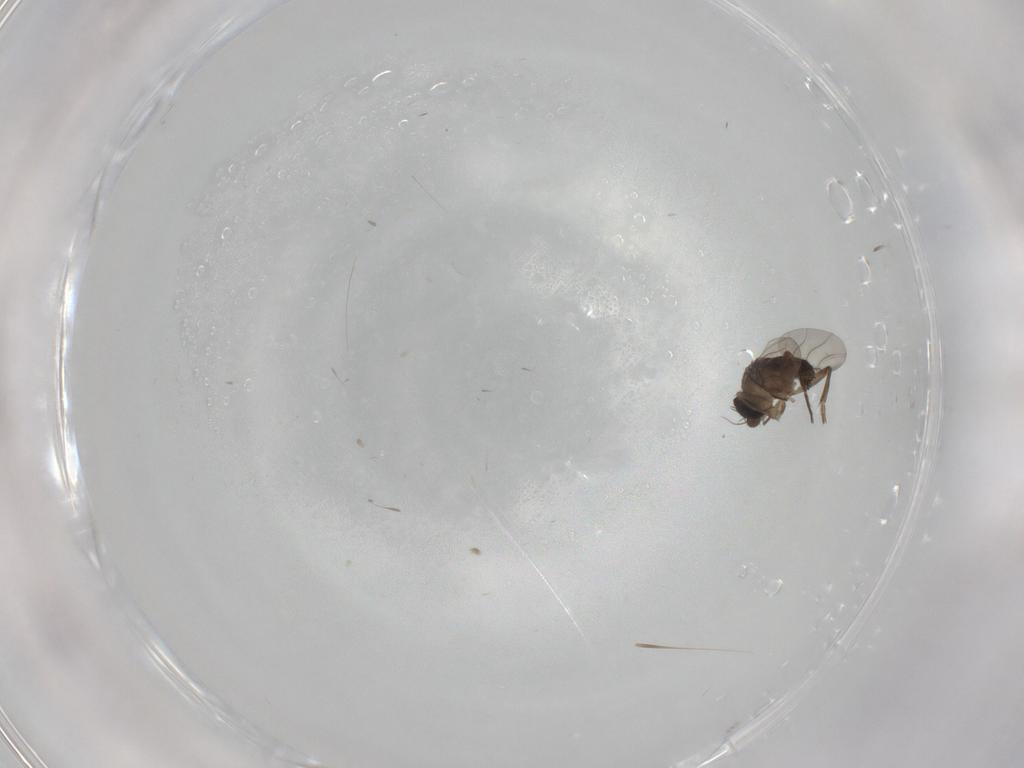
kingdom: Animalia
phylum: Arthropoda
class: Insecta
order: Diptera
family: Phoridae
